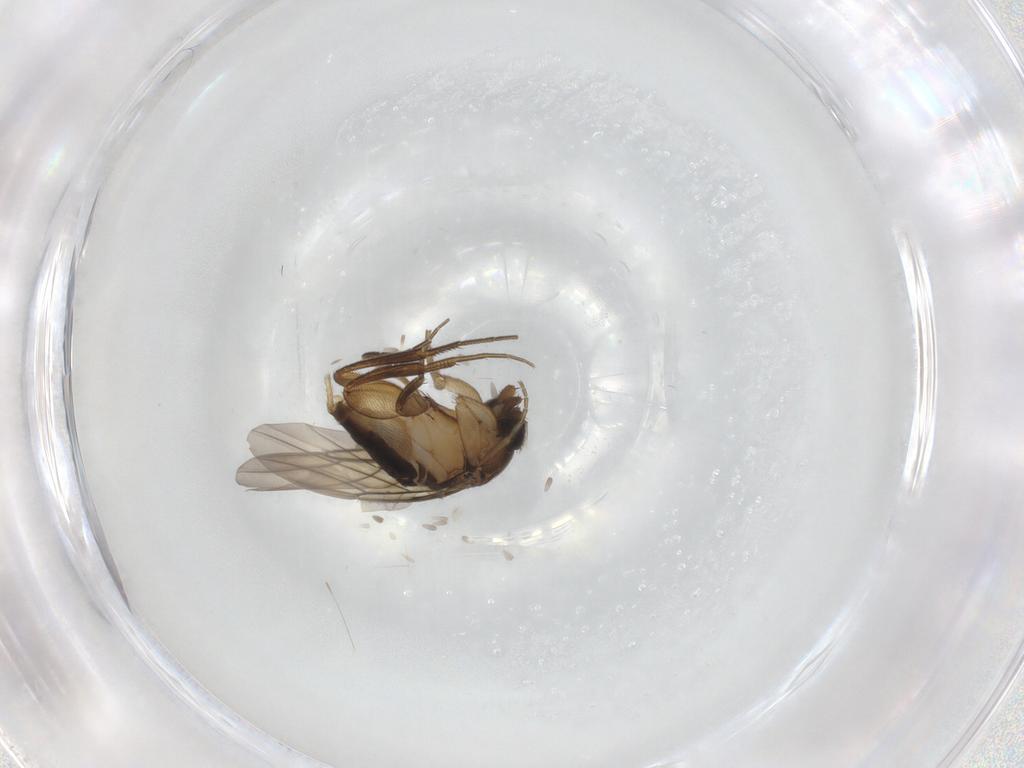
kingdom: Animalia
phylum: Arthropoda
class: Insecta
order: Diptera
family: Phoridae
